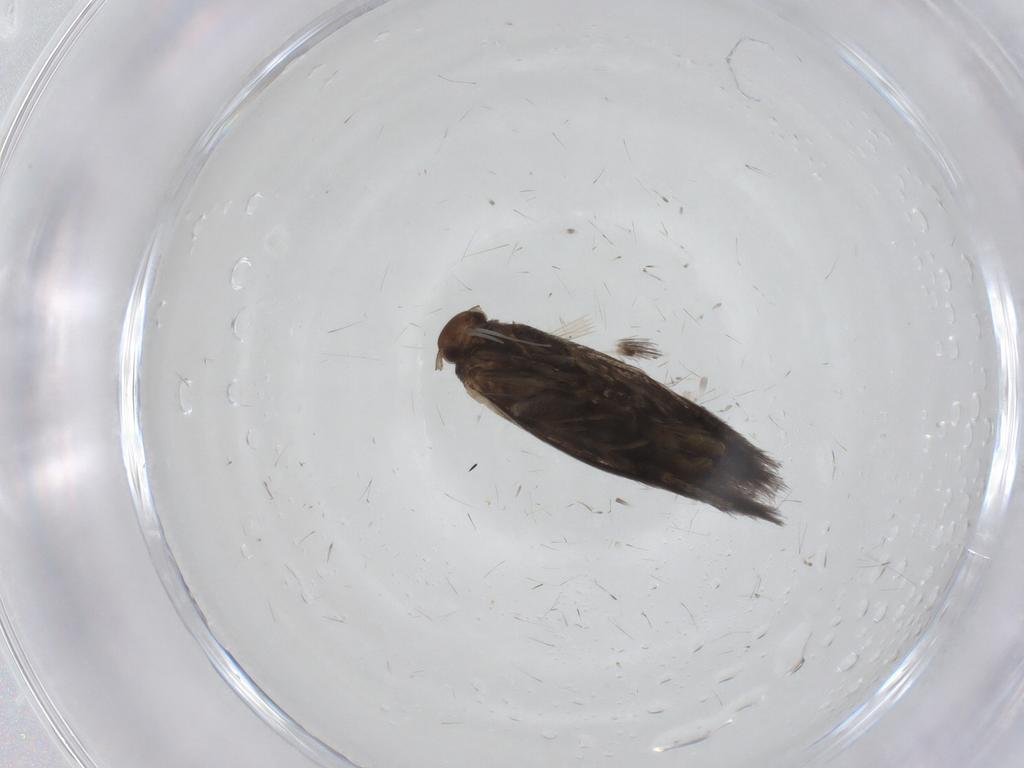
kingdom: Animalia
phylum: Arthropoda
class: Insecta
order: Lepidoptera
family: Elachistidae
